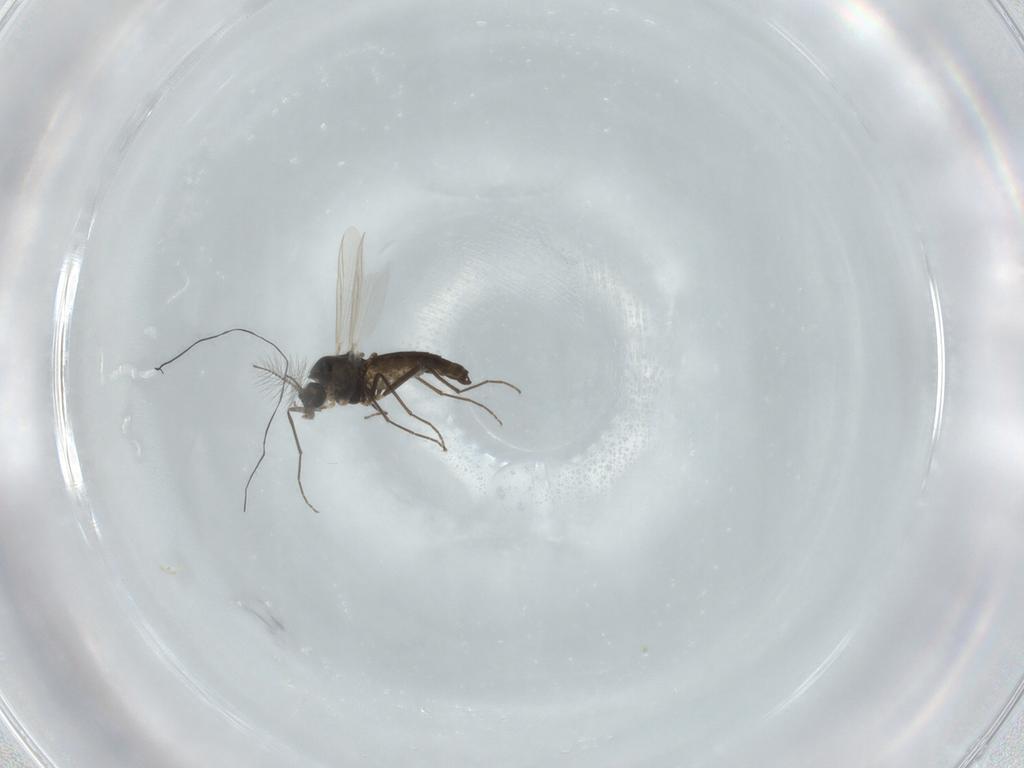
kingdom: Animalia
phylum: Arthropoda
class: Insecta
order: Diptera
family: Chironomidae
